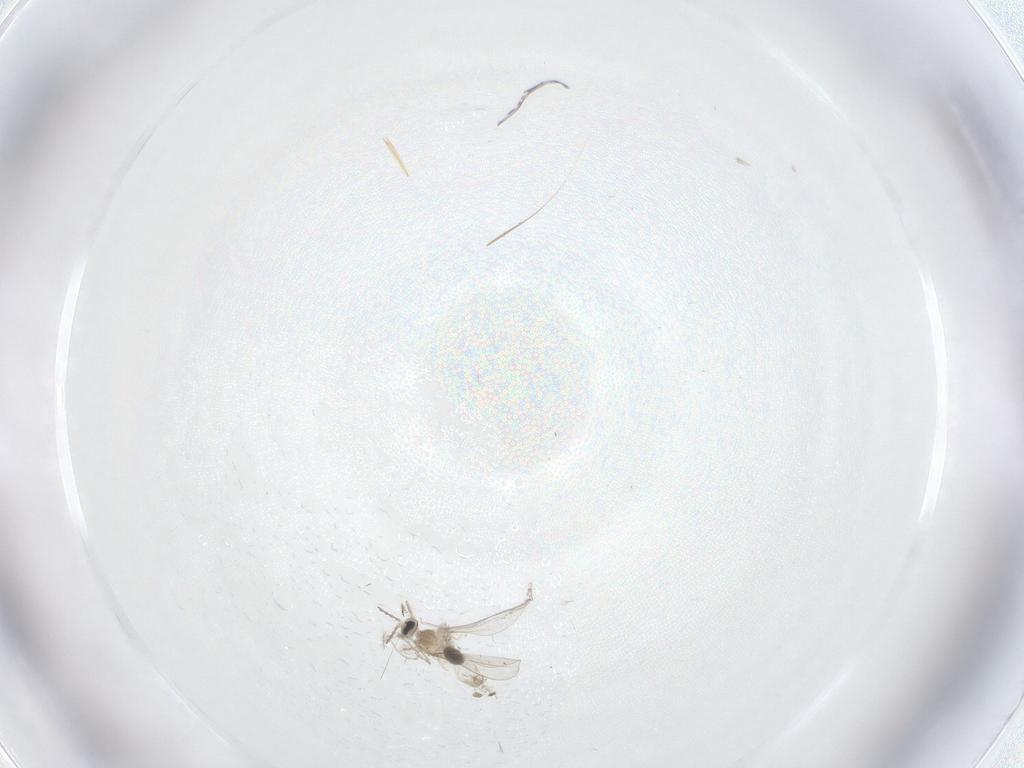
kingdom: Animalia
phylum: Arthropoda
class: Insecta
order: Diptera
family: Cecidomyiidae
